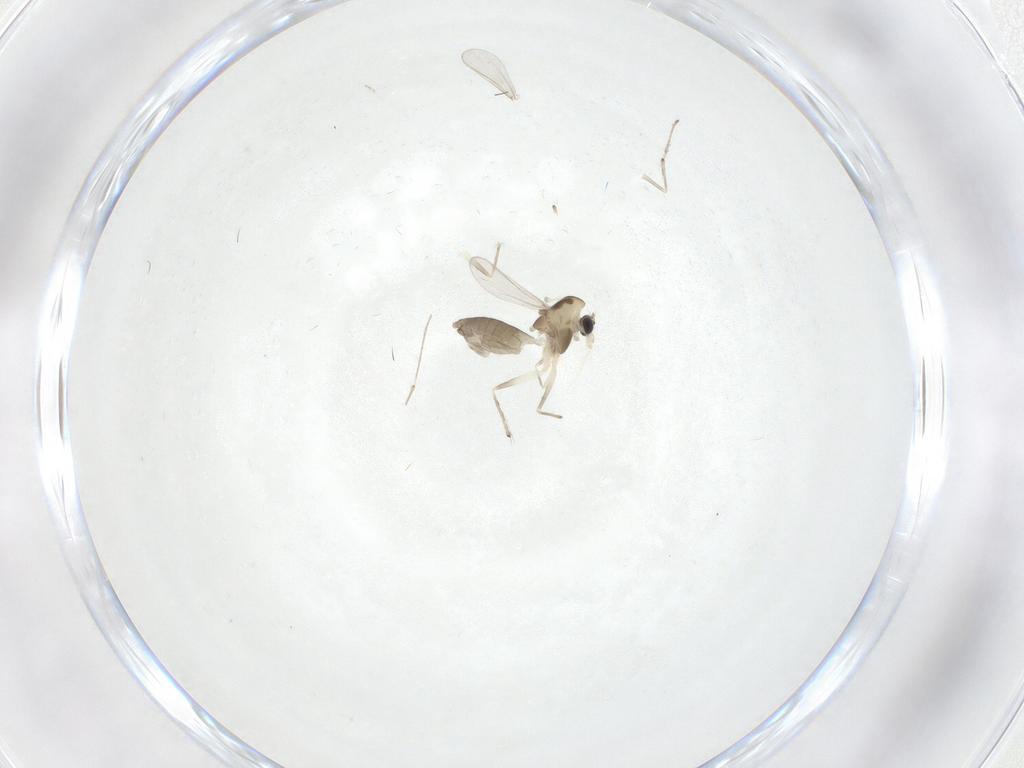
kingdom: Animalia
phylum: Arthropoda
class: Insecta
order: Diptera
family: Chironomidae
